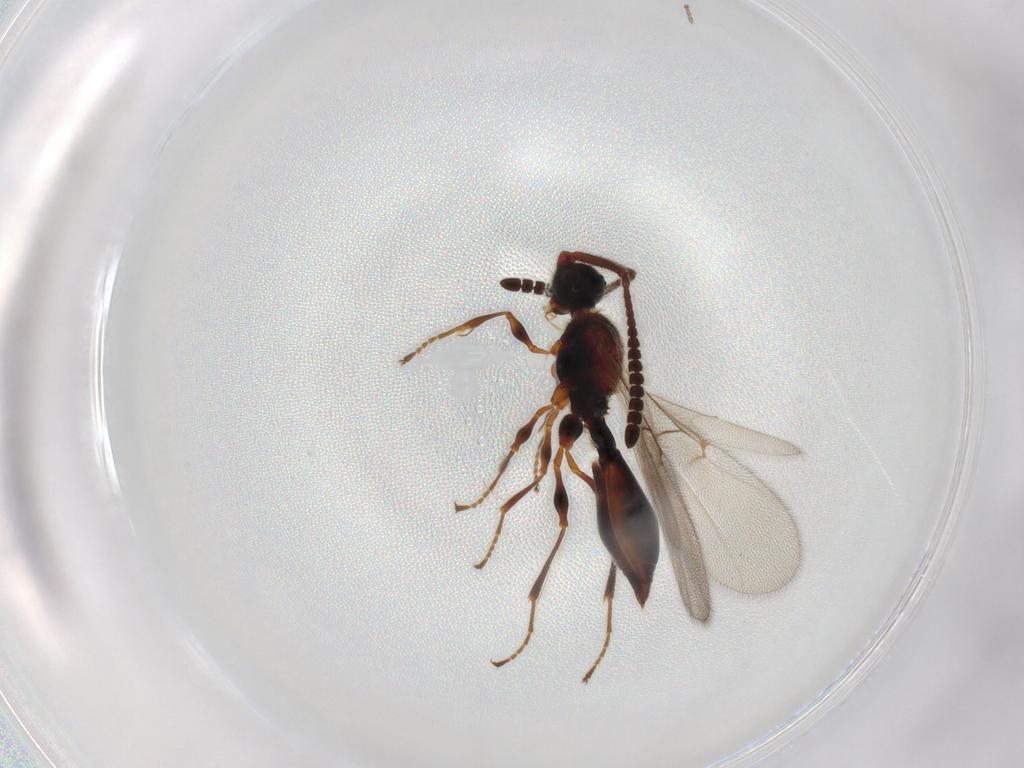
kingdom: Animalia
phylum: Arthropoda
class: Insecta
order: Hymenoptera
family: Diapriidae
